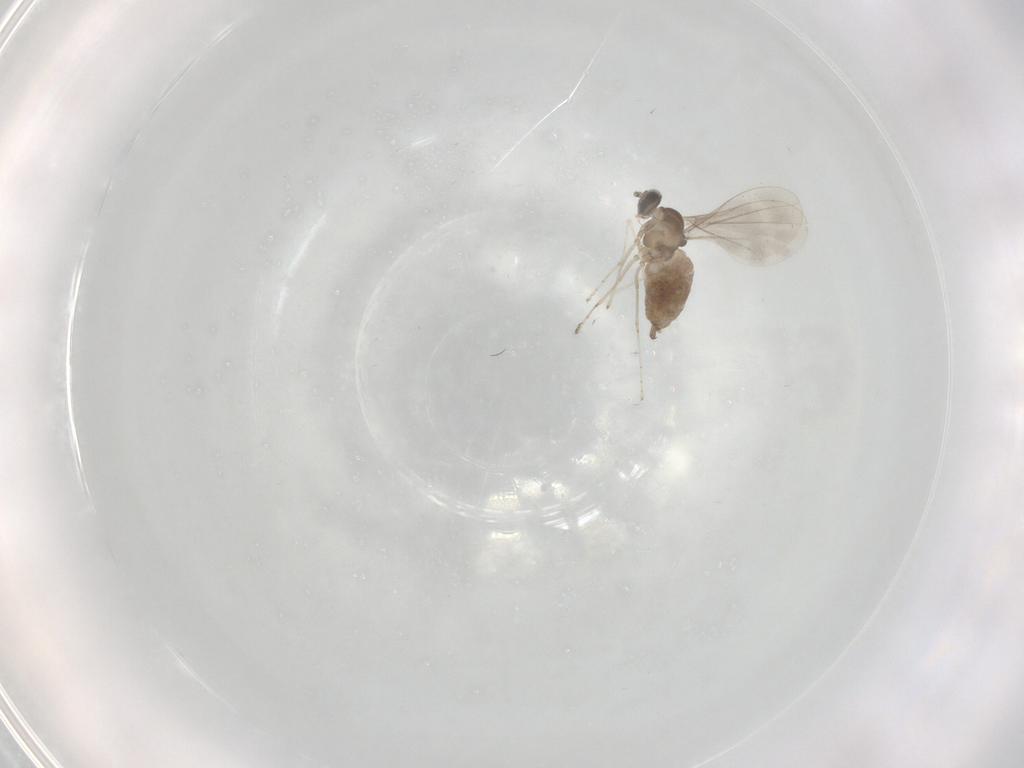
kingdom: Animalia
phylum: Arthropoda
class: Insecta
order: Diptera
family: Cecidomyiidae
